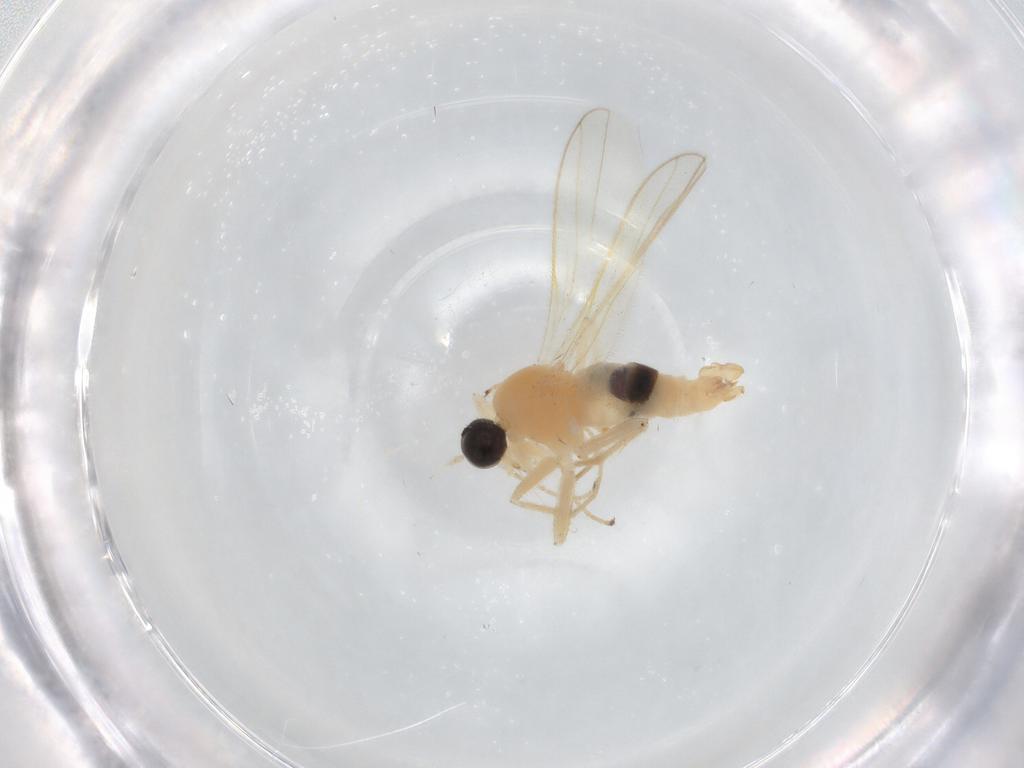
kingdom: Animalia
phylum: Arthropoda
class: Insecta
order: Diptera
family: Hybotidae
